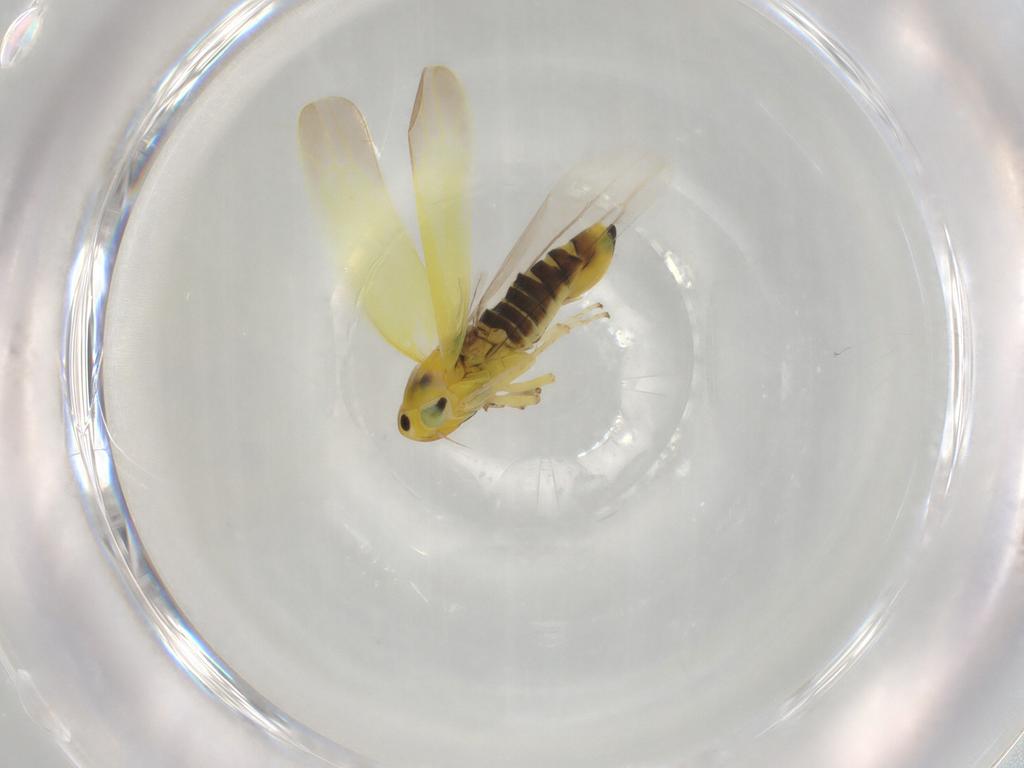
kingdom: Animalia
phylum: Arthropoda
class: Insecta
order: Hemiptera
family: Cicadellidae
